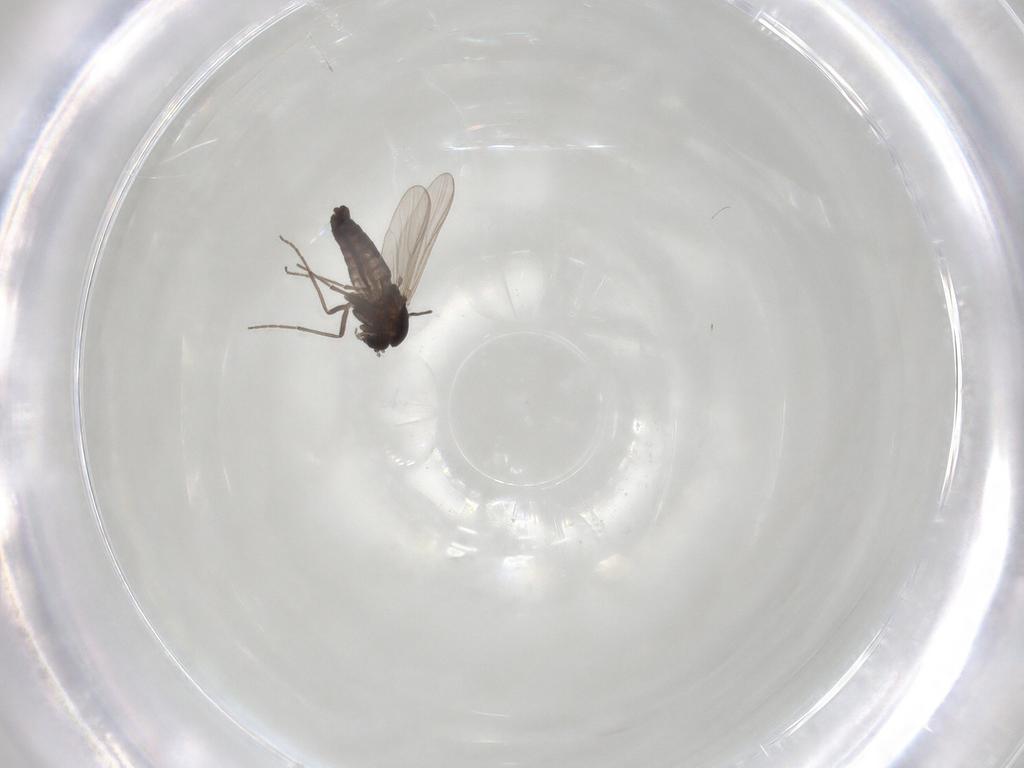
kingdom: Animalia
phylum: Arthropoda
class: Insecta
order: Diptera
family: Chironomidae
